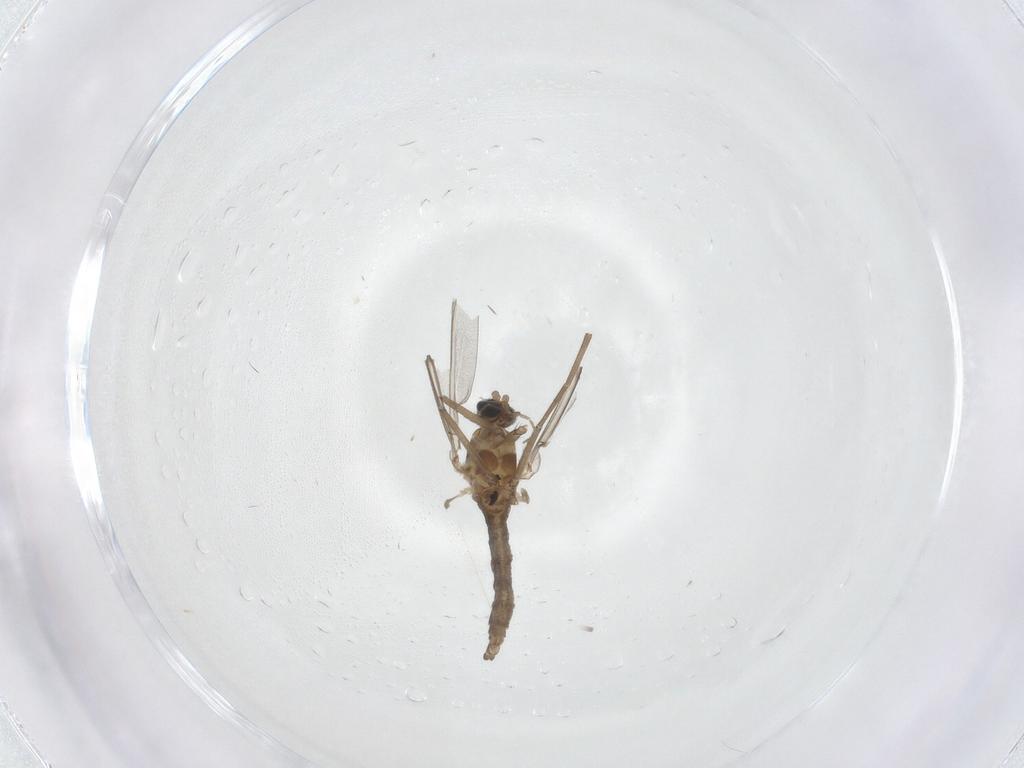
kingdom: Animalia
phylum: Arthropoda
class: Insecta
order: Diptera
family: Cecidomyiidae
